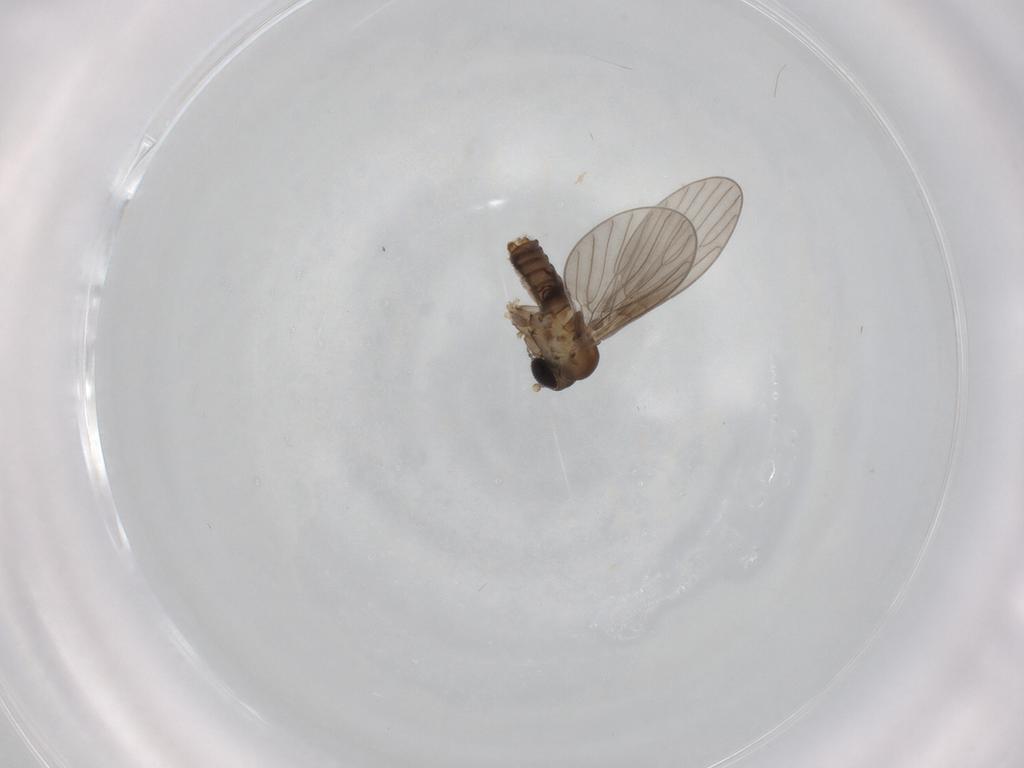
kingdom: Animalia
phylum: Arthropoda
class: Insecta
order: Diptera
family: Psychodidae
